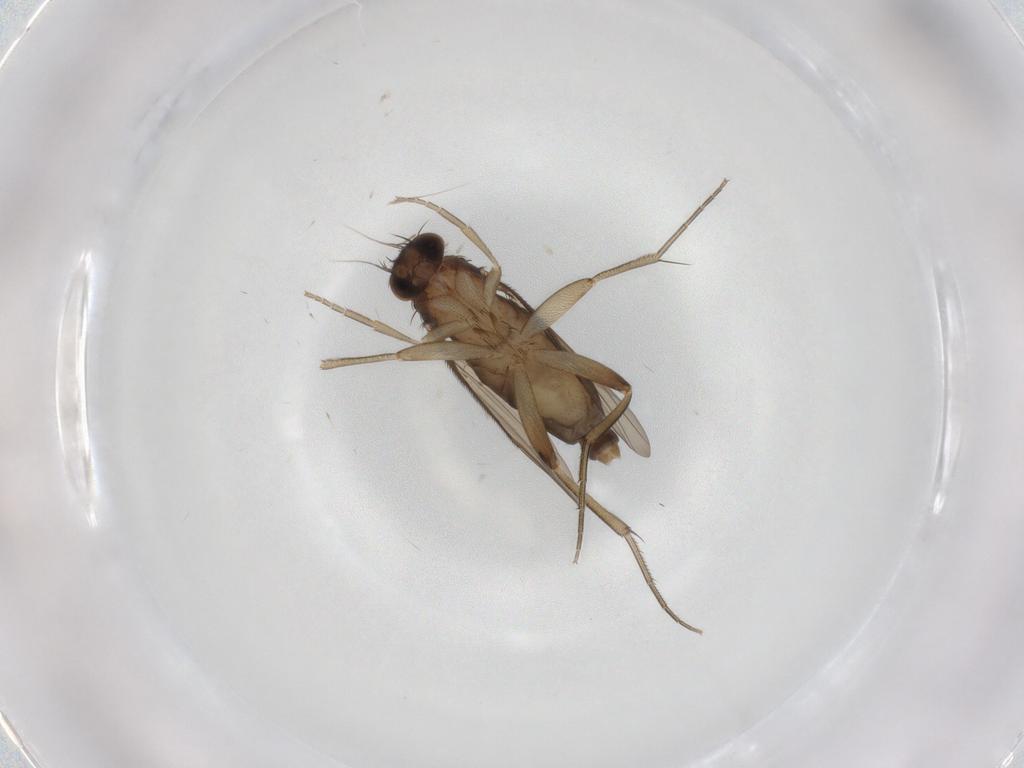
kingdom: Animalia
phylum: Arthropoda
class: Insecta
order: Diptera
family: Phoridae
